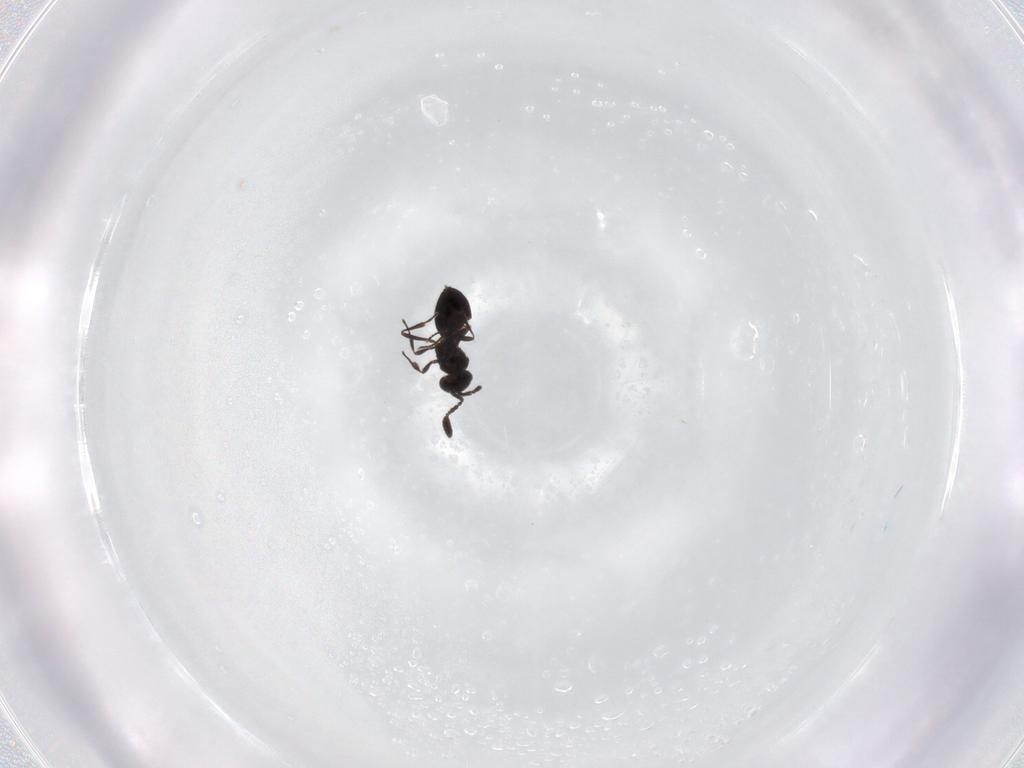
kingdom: Animalia
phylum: Arthropoda
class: Insecta
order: Hymenoptera
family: Scelionidae
